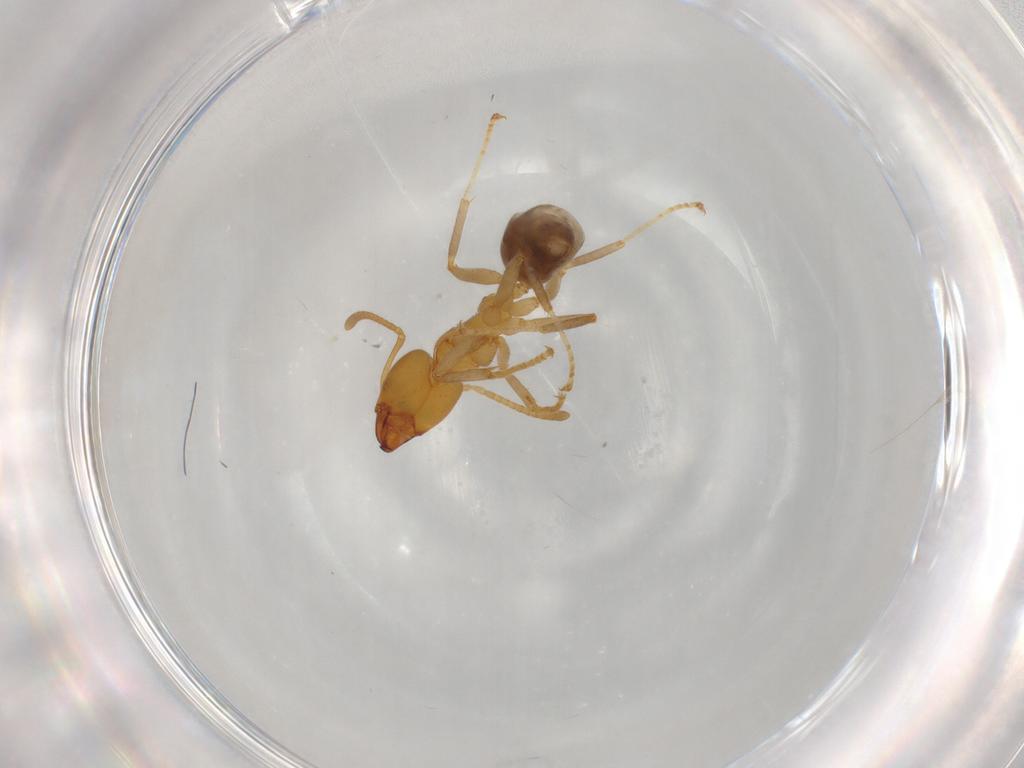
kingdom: Animalia
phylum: Arthropoda
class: Insecta
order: Hymenoptera
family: Formicidae
